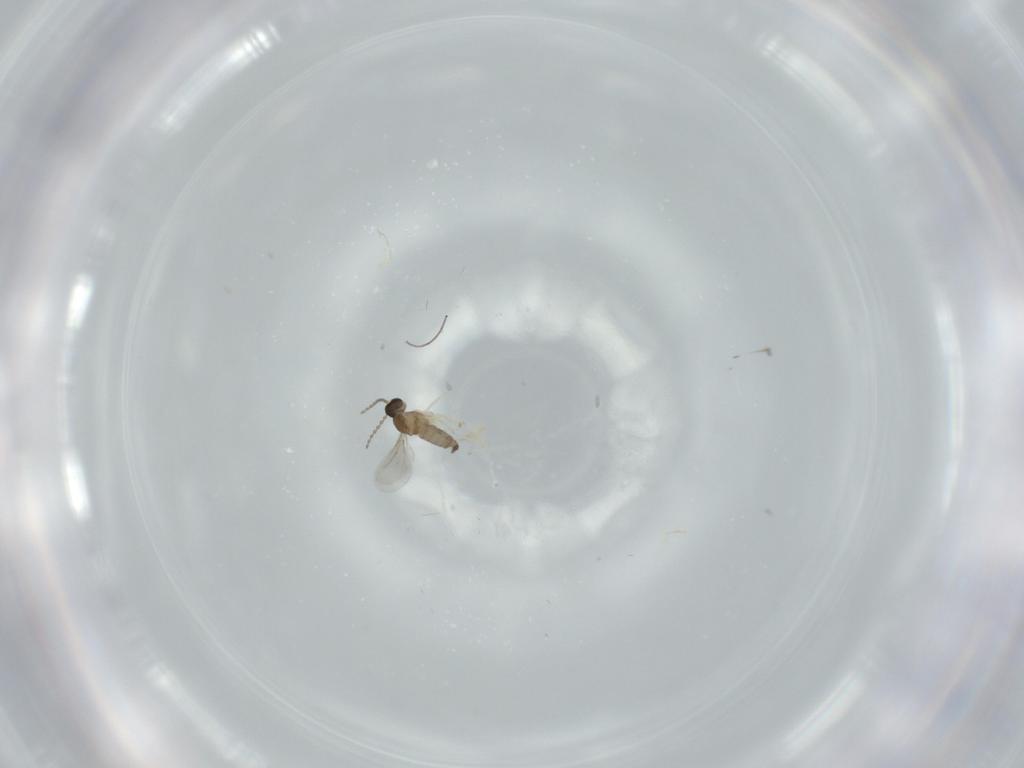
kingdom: Animalia
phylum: Arthropoda
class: Insecta
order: Diptera
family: Cecidomyiidae
